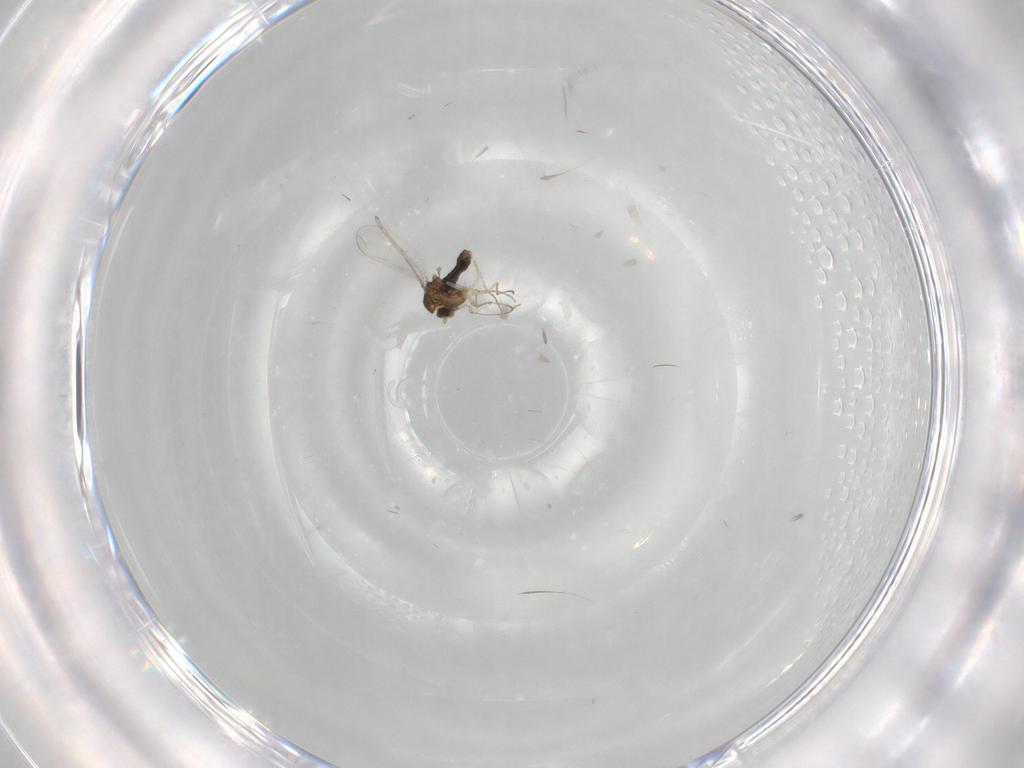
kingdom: Animalia
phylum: Arthropoda
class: Insecta
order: Diptera
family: Chironomidae
